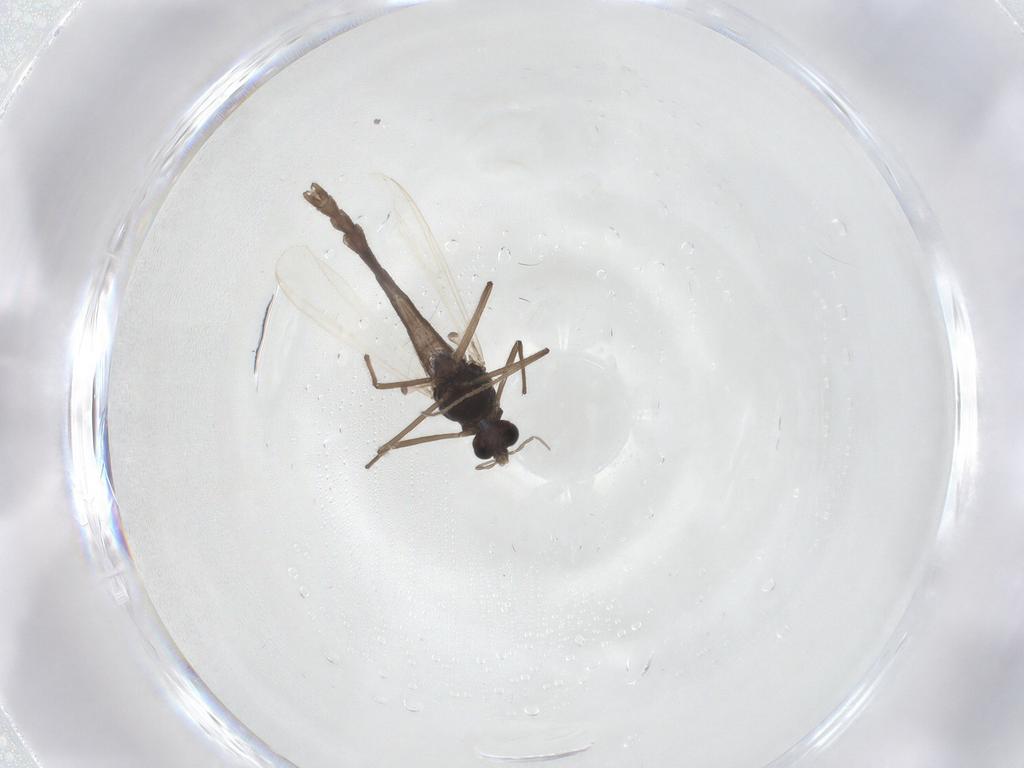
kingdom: Animalia
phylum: Arthropoda
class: Insecta
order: Diptera
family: Chironomidae
